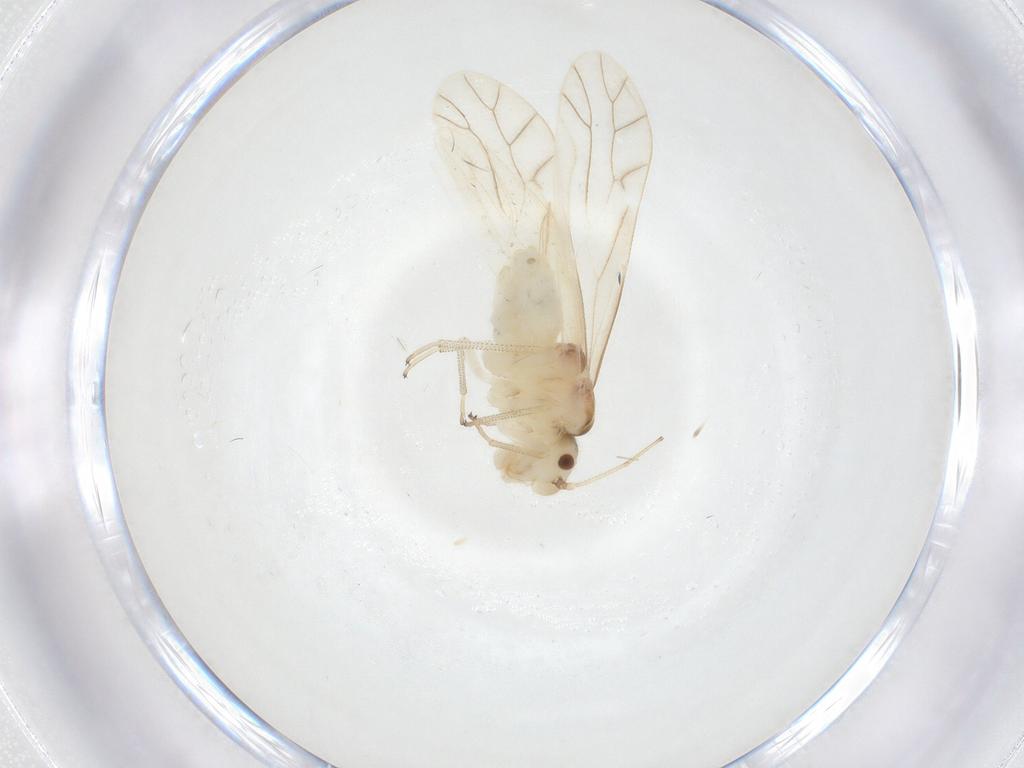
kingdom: Animalia
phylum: Arthropoda
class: Insecta
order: Psocodea
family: Caeciliusidae
